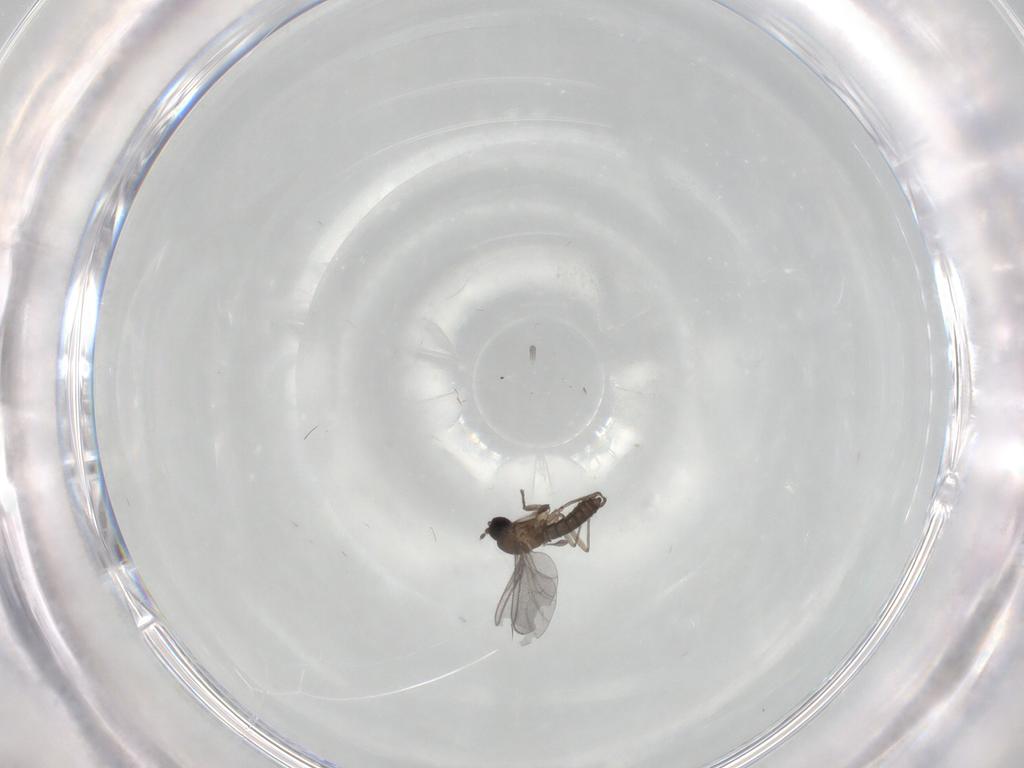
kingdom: Animalia
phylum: Arthropoda
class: Insecta
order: Diptera
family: Sciaridae
